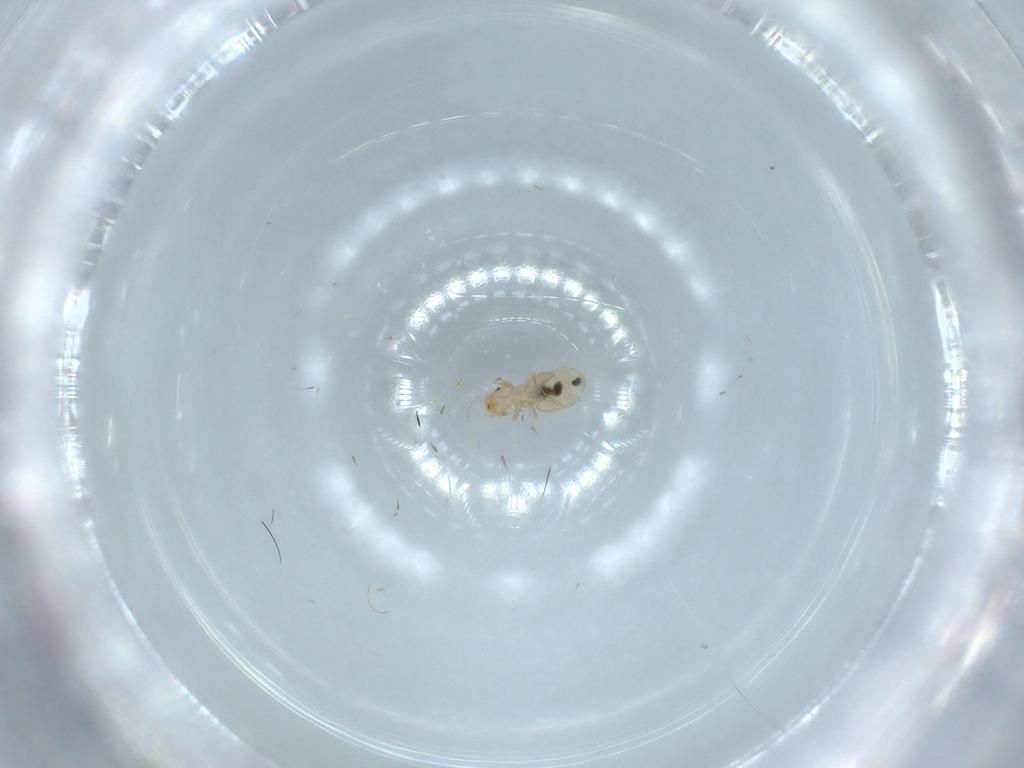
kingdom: Animalia
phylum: Arthropoda
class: Insecta
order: Psocodea
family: Liposcelididae
